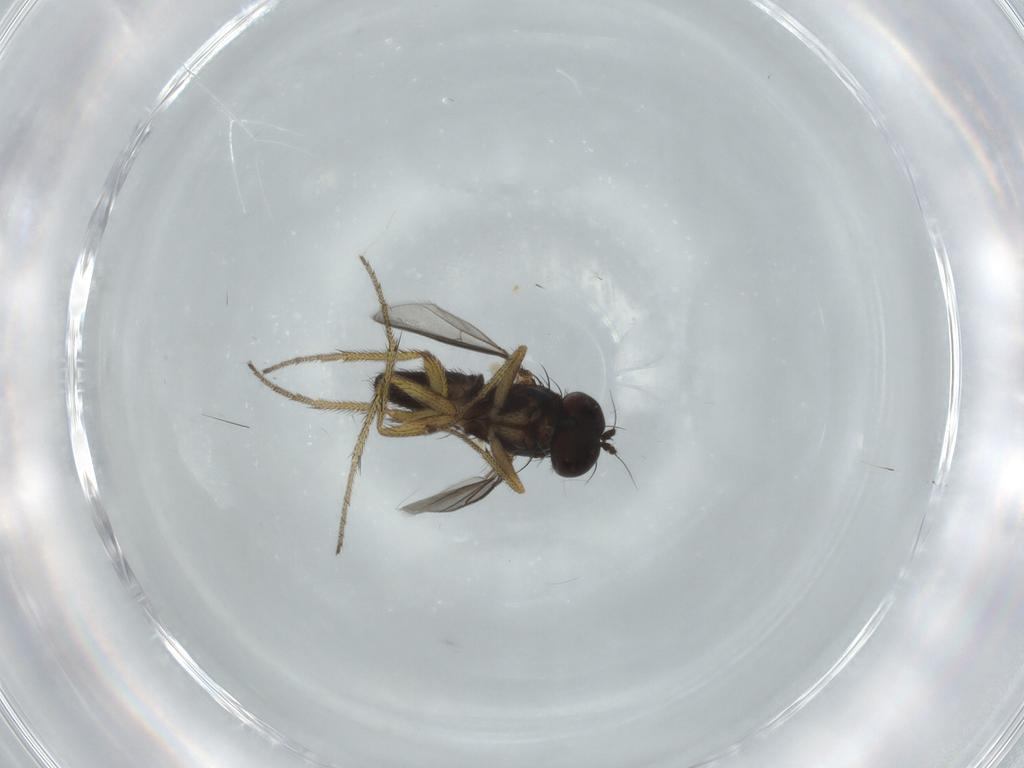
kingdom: Animalia
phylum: Arthropoda
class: Insecta
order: Diptera
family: Dolichopodidae
